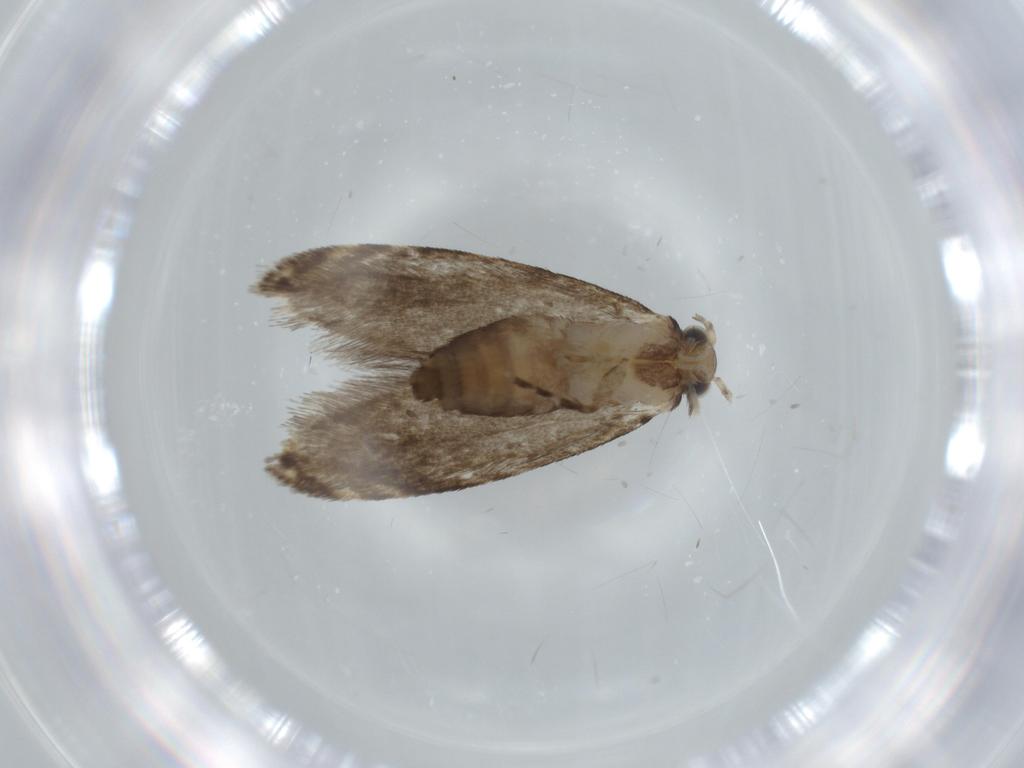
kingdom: Animalia
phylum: Arthropoda
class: Insecta
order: Lepidoptera
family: Tineidae
